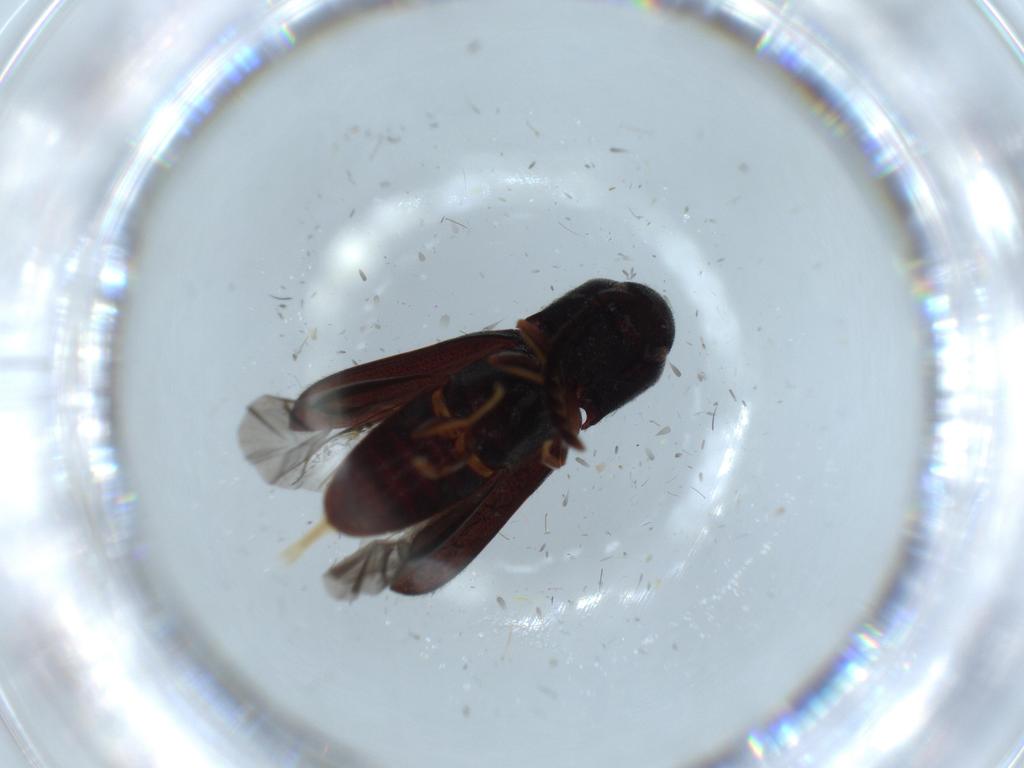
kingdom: Animalia
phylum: Arthropoda
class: Insecta
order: Coleoptera
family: Eucnemidae
